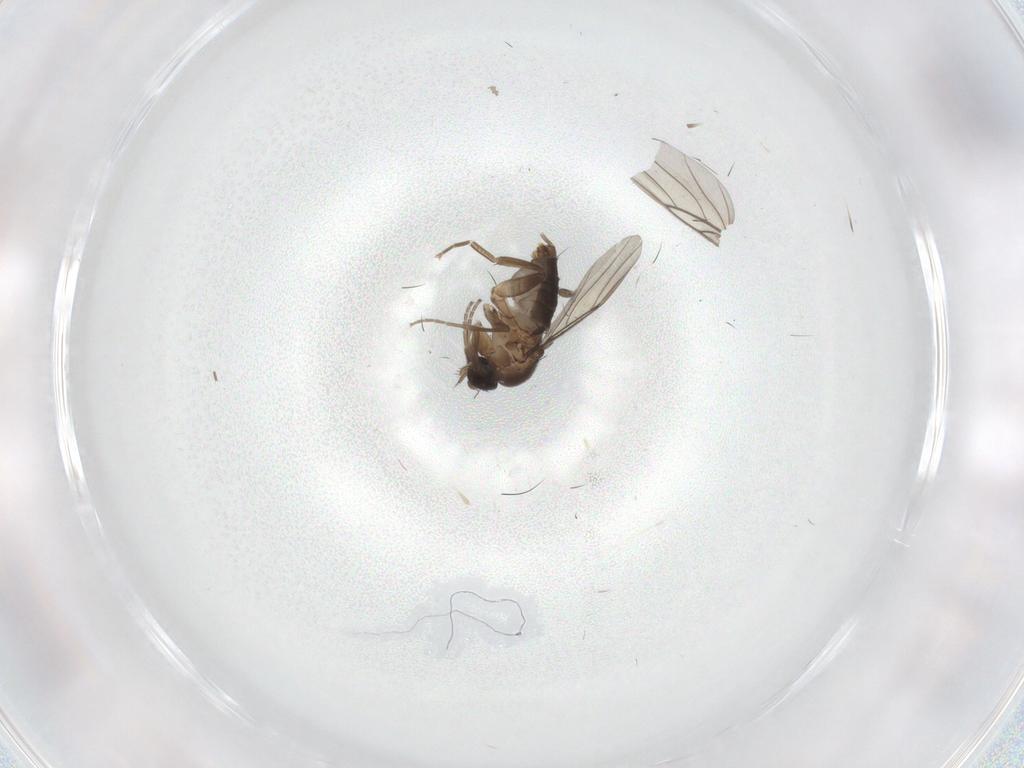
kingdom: Animalia
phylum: Arthropoda
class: Insecta
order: Diptera
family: Phoridae
